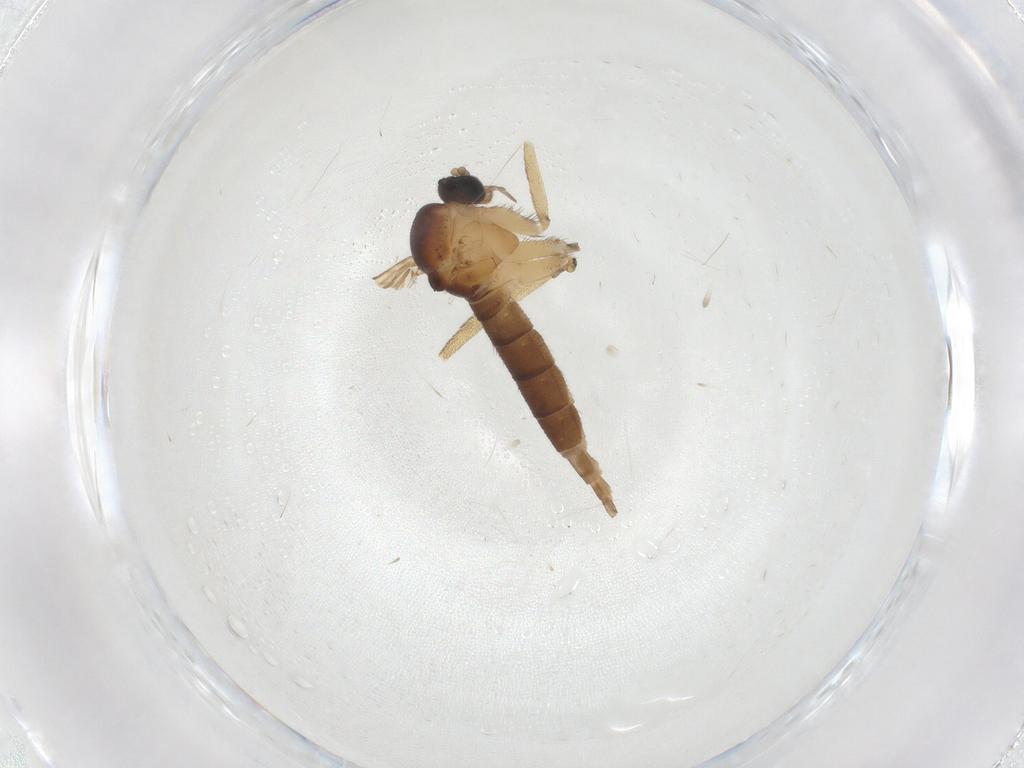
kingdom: Animalia
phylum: Arthropoda
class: Insecta
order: Diptera
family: Sciaridae
